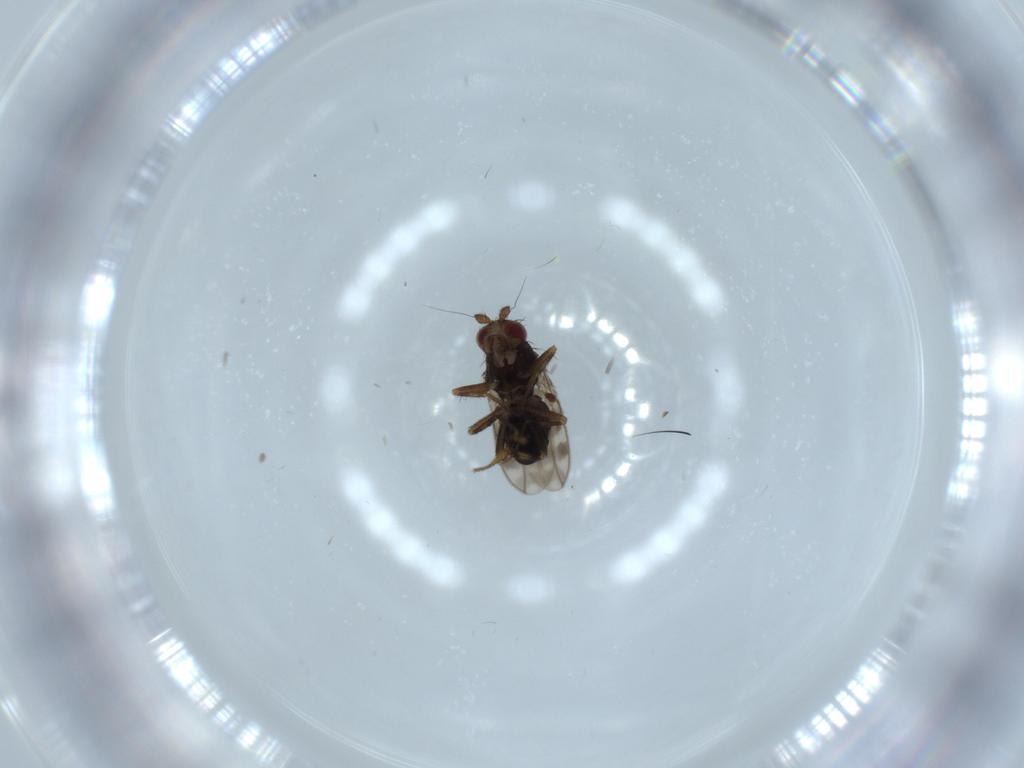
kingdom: Animalia
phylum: Arthropoda
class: Insecta
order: Diptera
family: Sphaeroceridae
